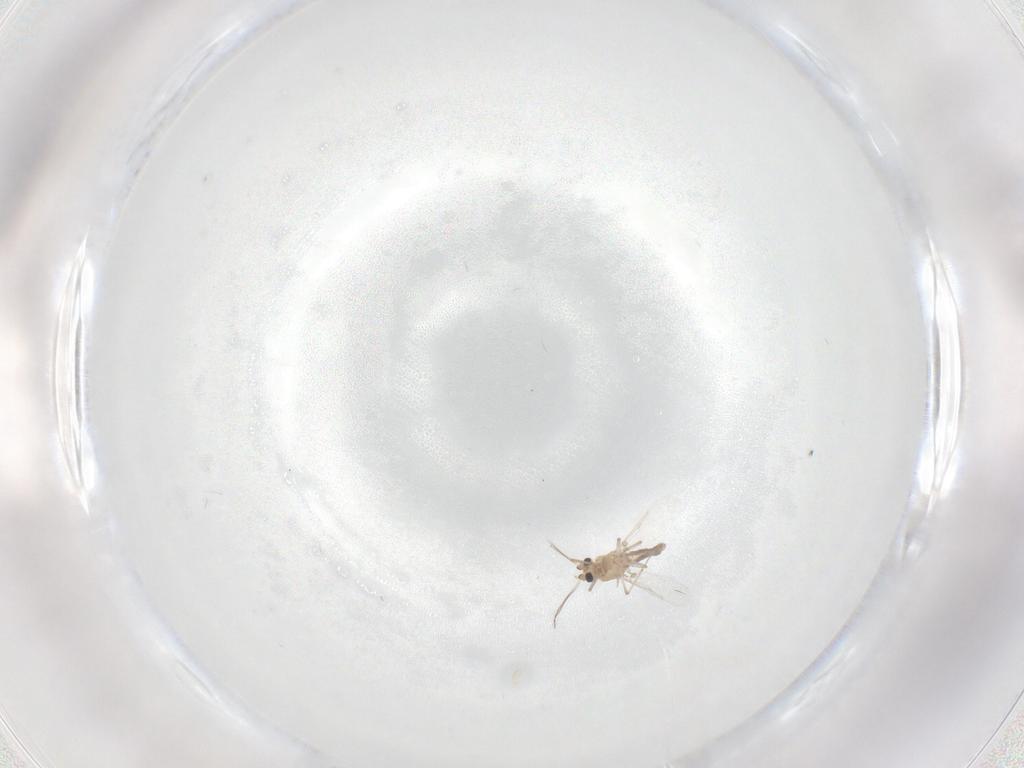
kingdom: Animalia
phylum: Arthropoda
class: Insecta
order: Diptera
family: Ceratopogonidae
